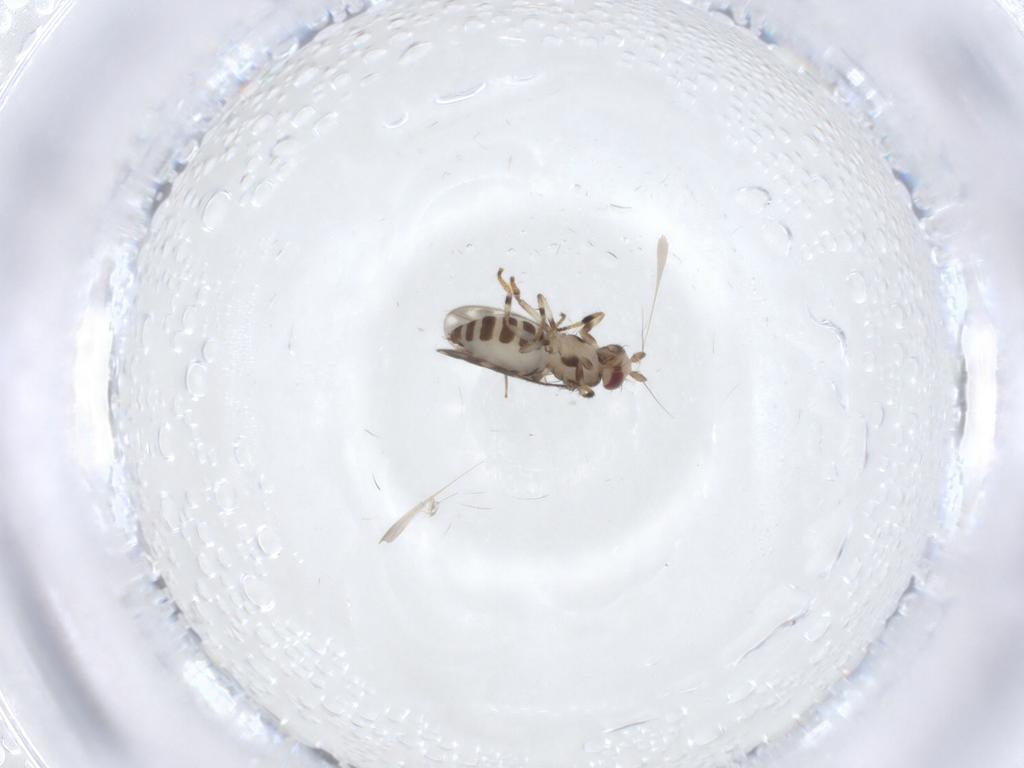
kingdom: Animalia
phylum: Arthropoda
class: Insecta
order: Diptera
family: Sphaeroceridae
